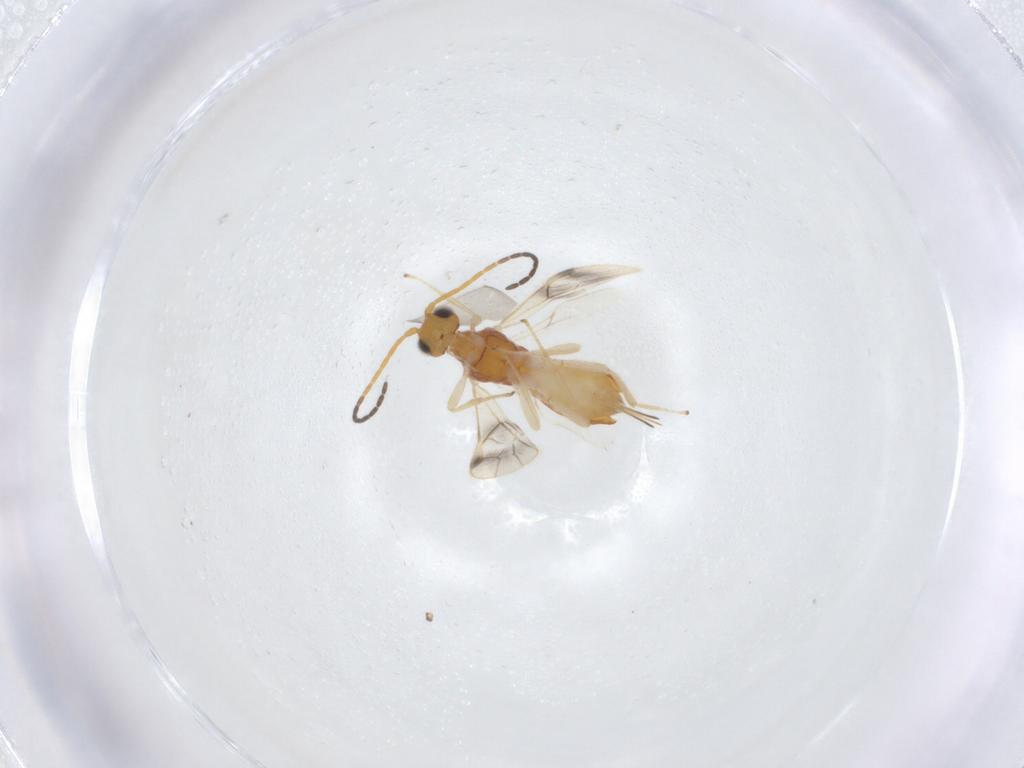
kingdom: Animalia
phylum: Arthropoda
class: Insecta
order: Hymenoptera
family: Braconidae
